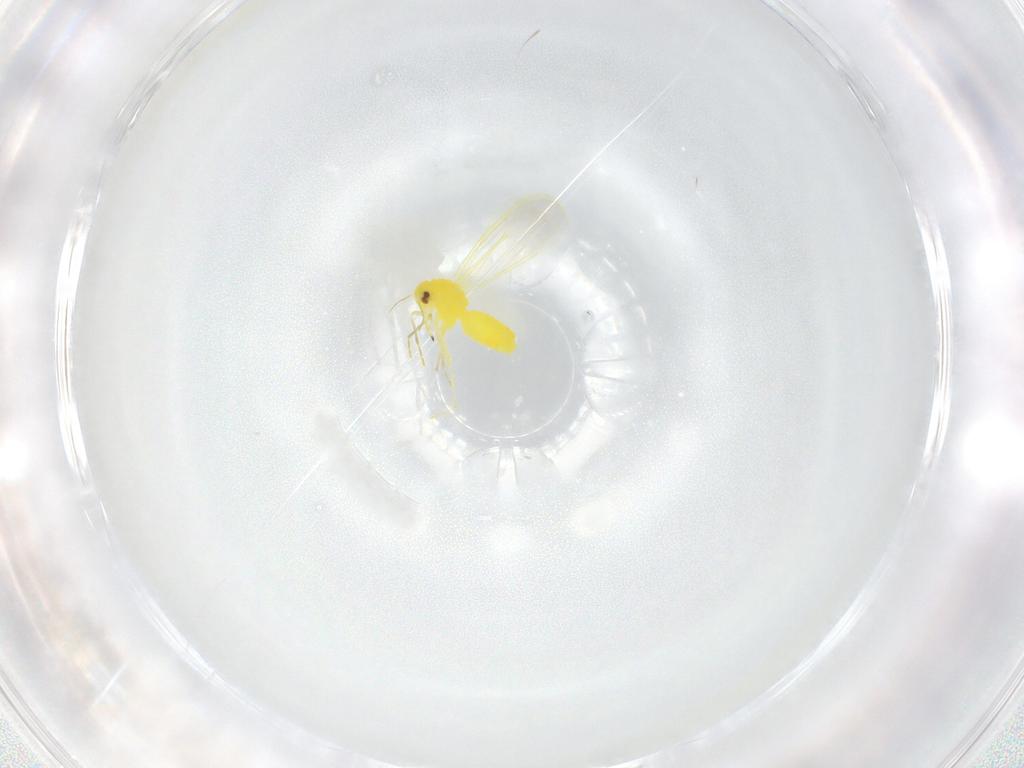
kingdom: Animalia
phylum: Arthropoda
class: Insecta
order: Hemiptera
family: Aleyrodidae
